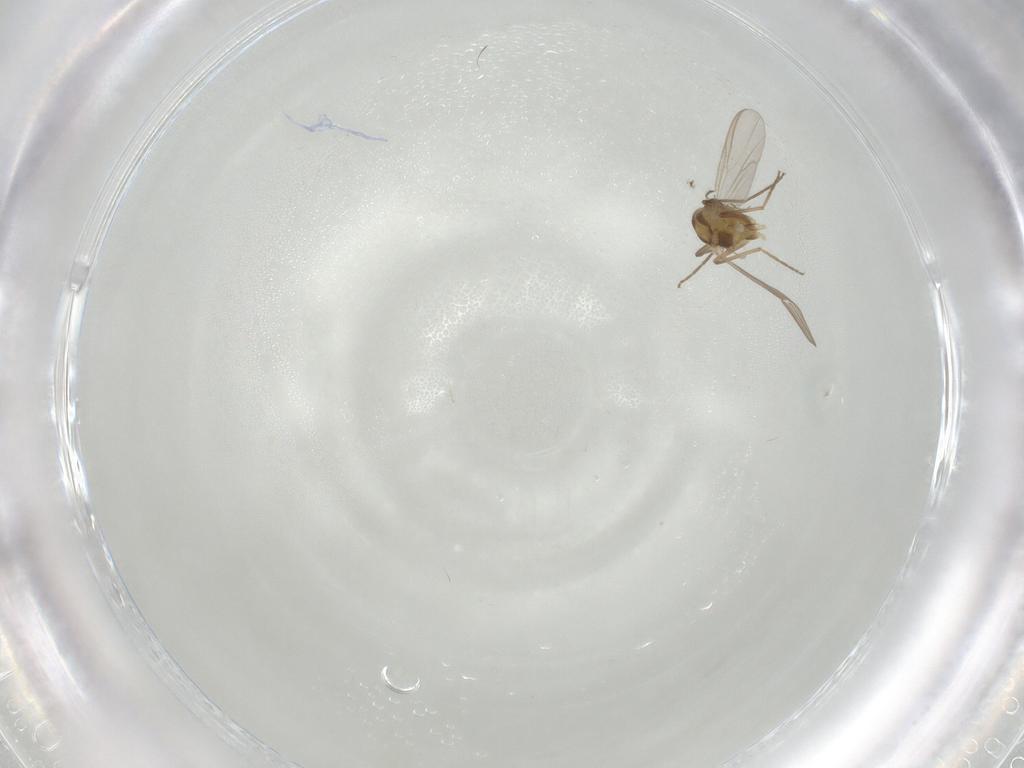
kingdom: Animalia
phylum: Arthropoda
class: Insecta
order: Diptera
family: Chironomidae
